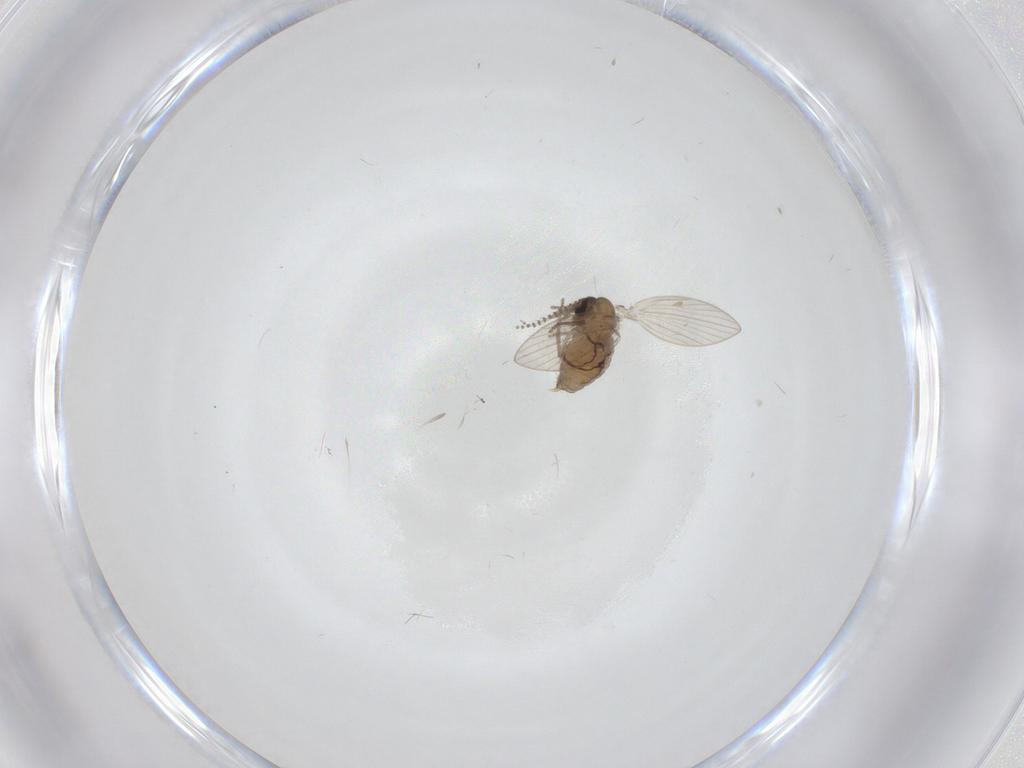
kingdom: Animalia
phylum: Arthropoda
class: Insecta
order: Diptera
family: Psychodidae
